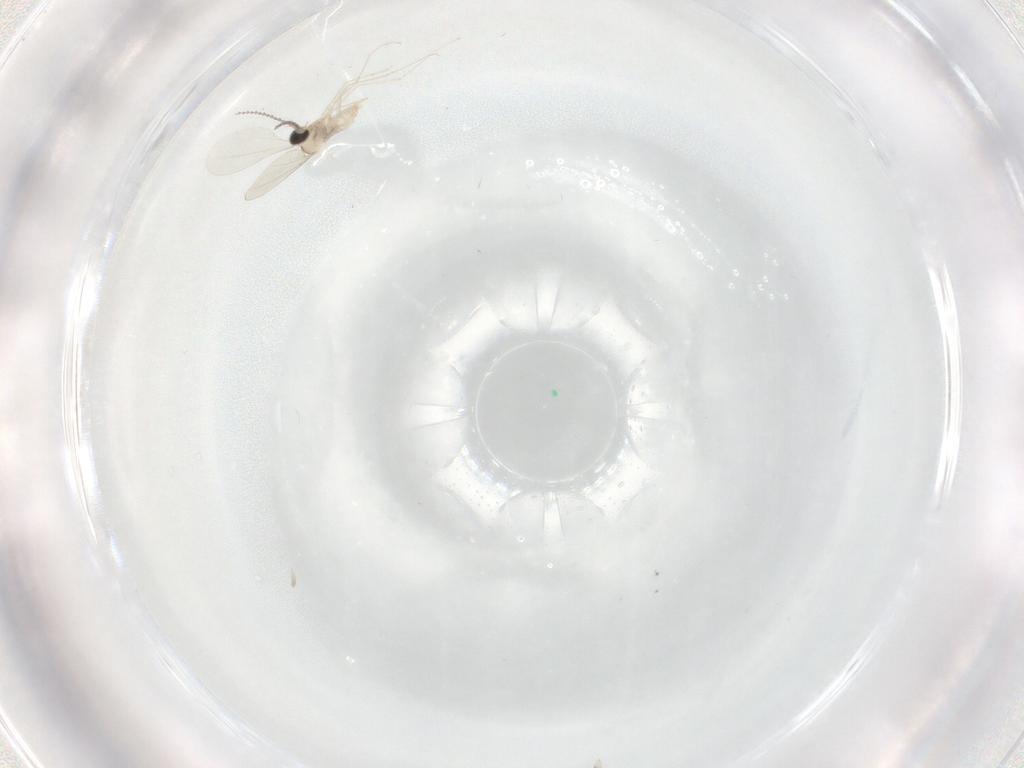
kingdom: Animalia
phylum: Arthropoda
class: Insecta
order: Diptera
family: Cecidomyiidae
